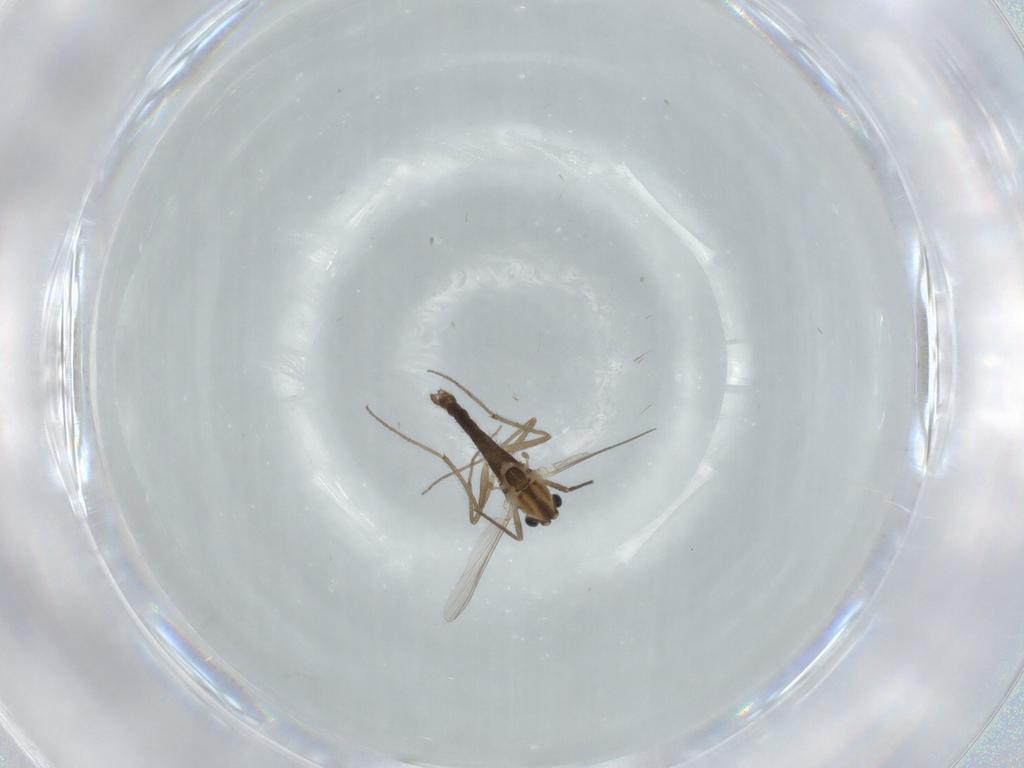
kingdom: Animalia
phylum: Arthropoda
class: Insecta
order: Diptera
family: Chironomidae
